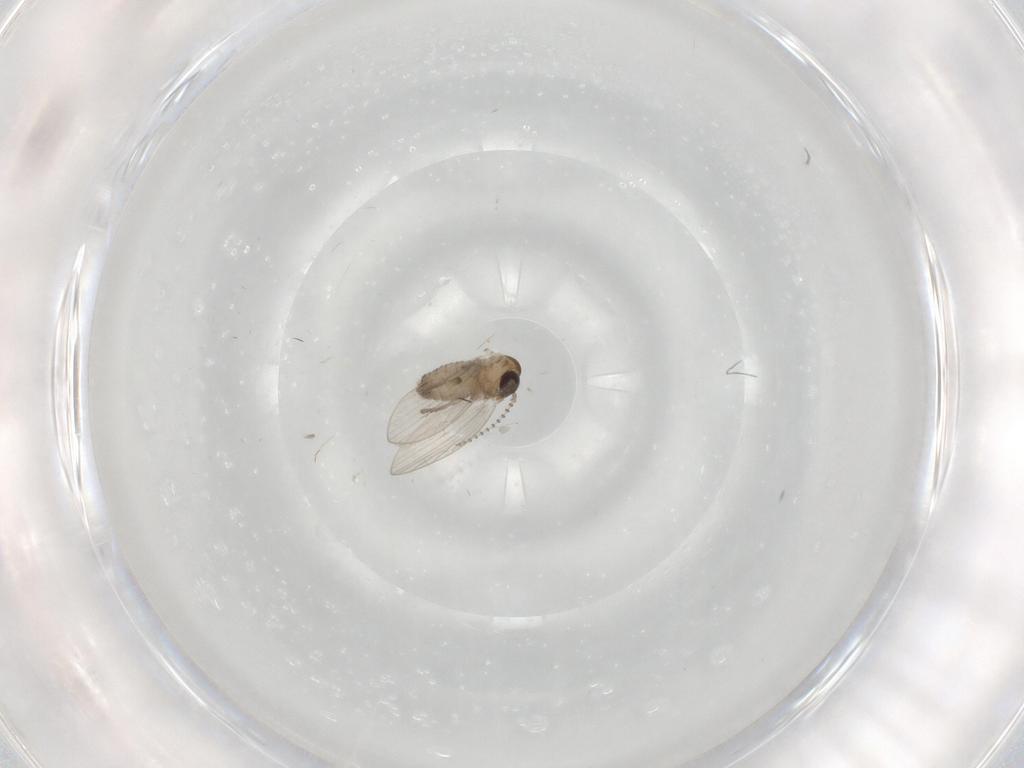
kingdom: Animalia
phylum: Arthropoda
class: Insecta
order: Diptera
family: Psychodidae
